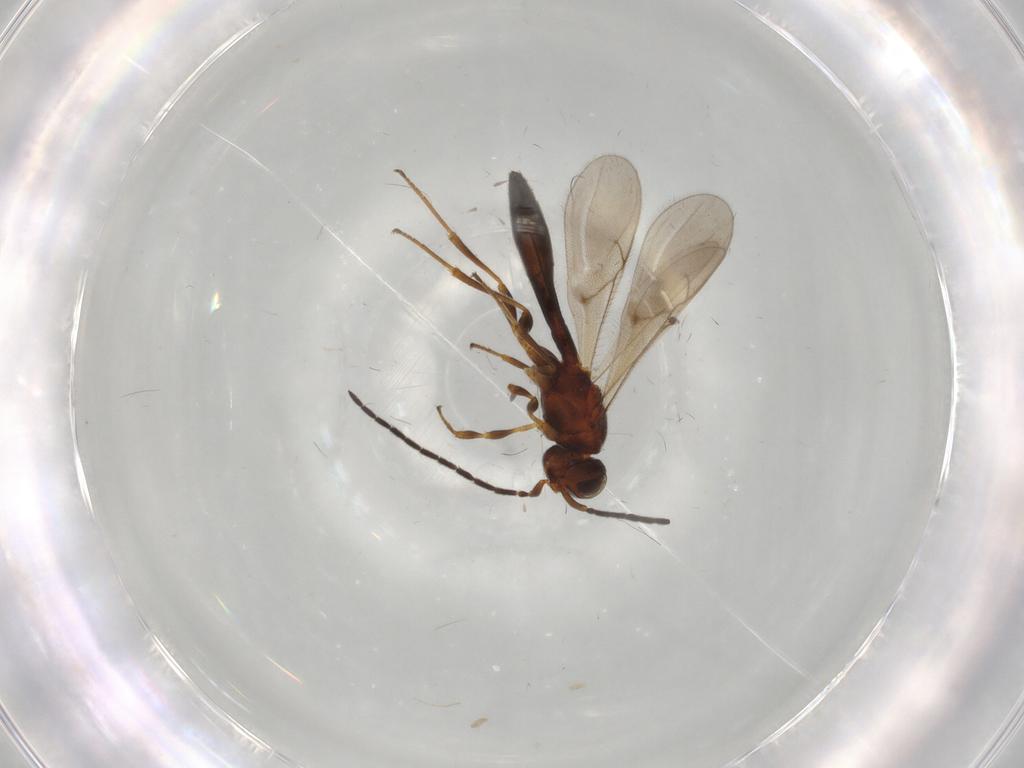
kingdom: Animalia
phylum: Arthropoda
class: Insecta
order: Hymenoptera
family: Scelionidae
